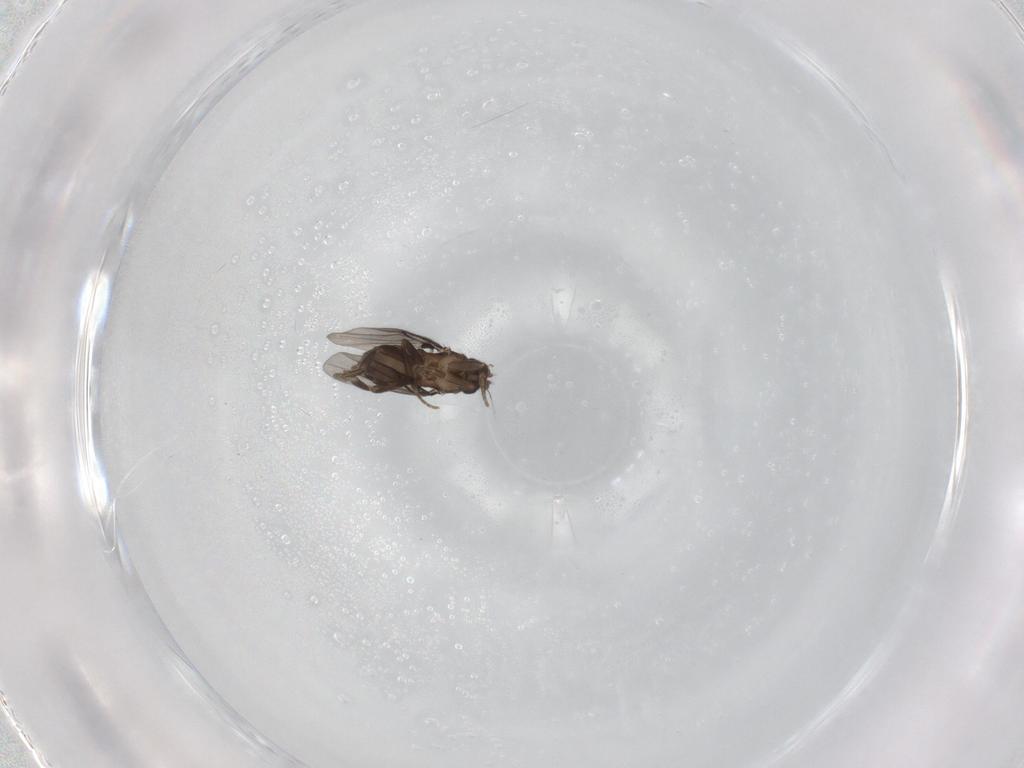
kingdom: Animalia
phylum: Arthropoda
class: Insecta
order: Diptera
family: Phoridae
